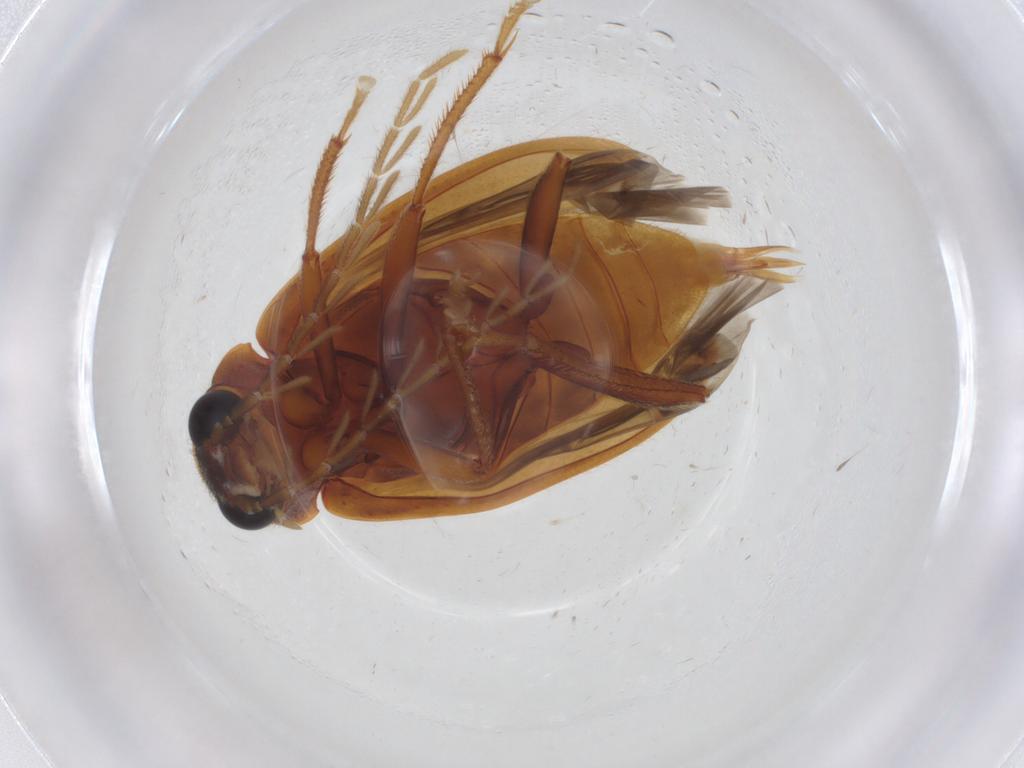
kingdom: Animalia
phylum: Arthropoda
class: Insecta
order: Coleoptera
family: Ptilodactylidae
